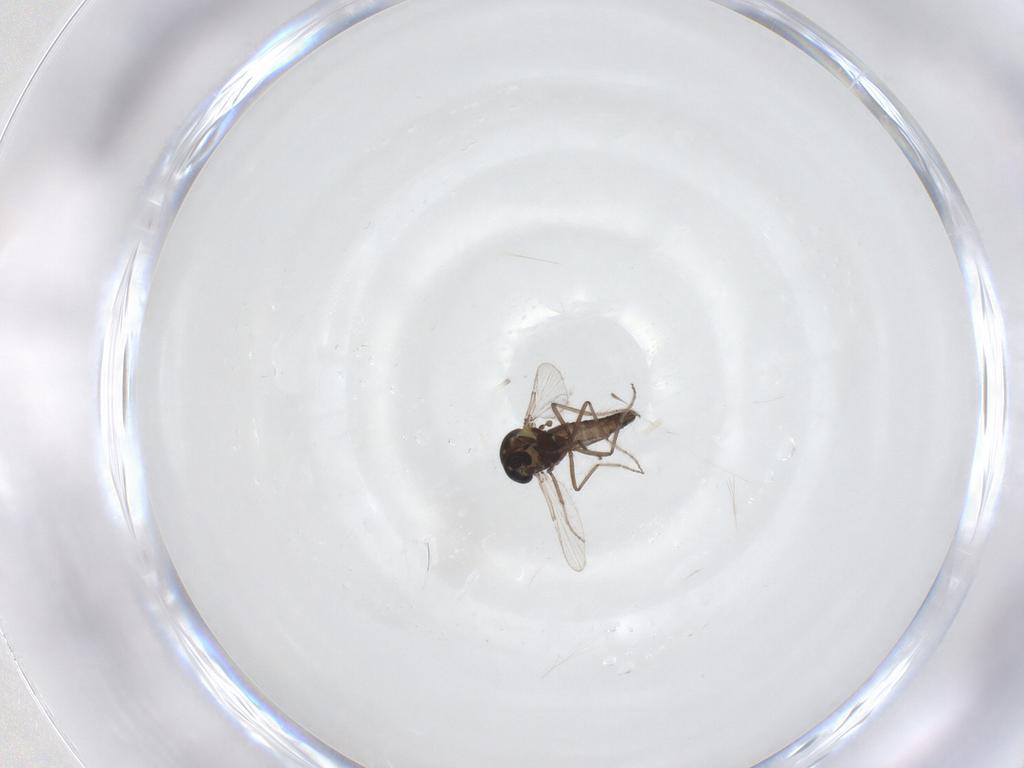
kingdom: Animalia
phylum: Arthropoda
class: Insecta
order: Diptera
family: Ceratopogonidae
